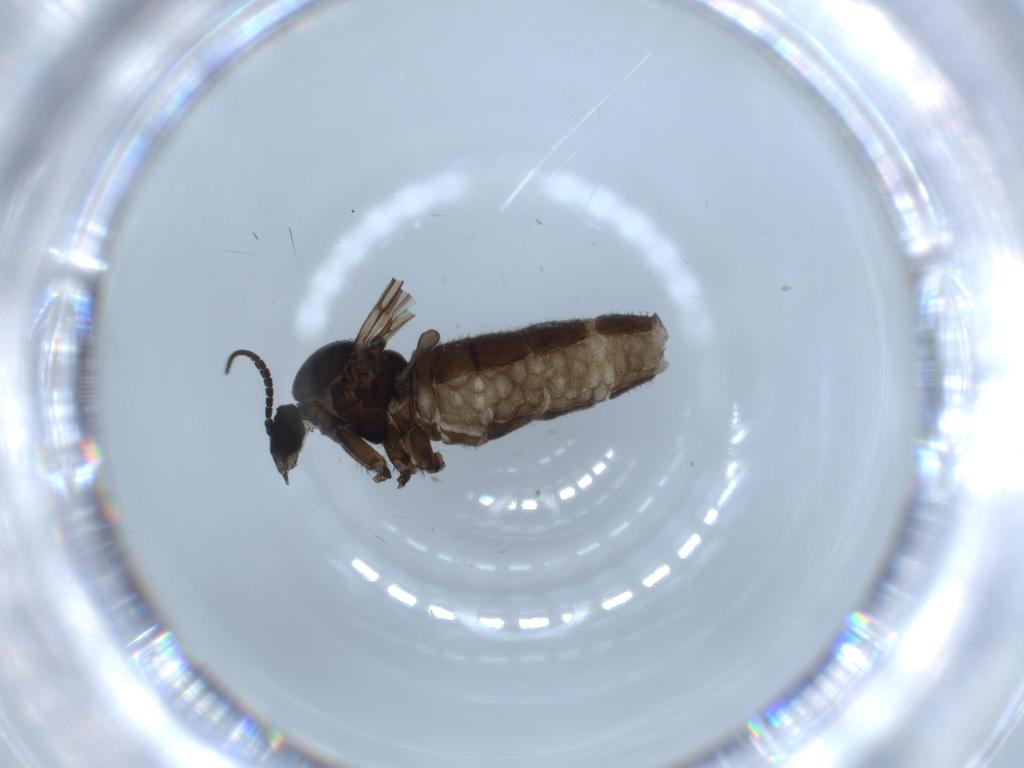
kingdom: Animalia
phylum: Arthropoda
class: Insecta
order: Diptera
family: Sciaridae
